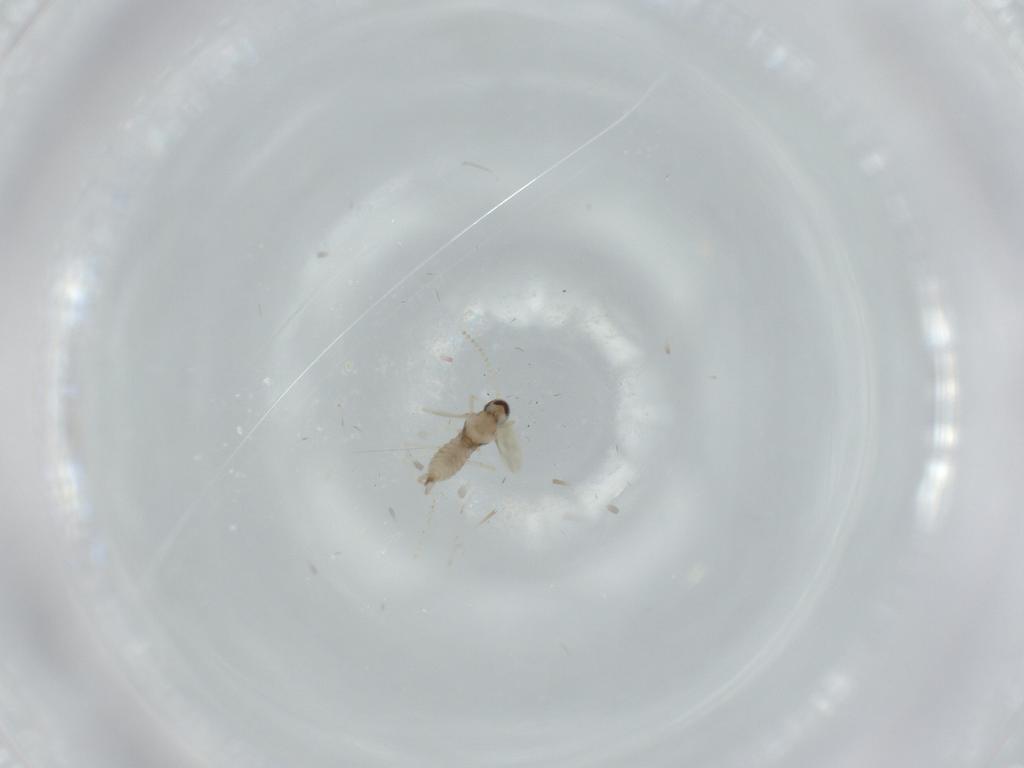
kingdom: Animalia
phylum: Arthropoda
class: Insecta
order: Diptera
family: Cecidomyiidae
